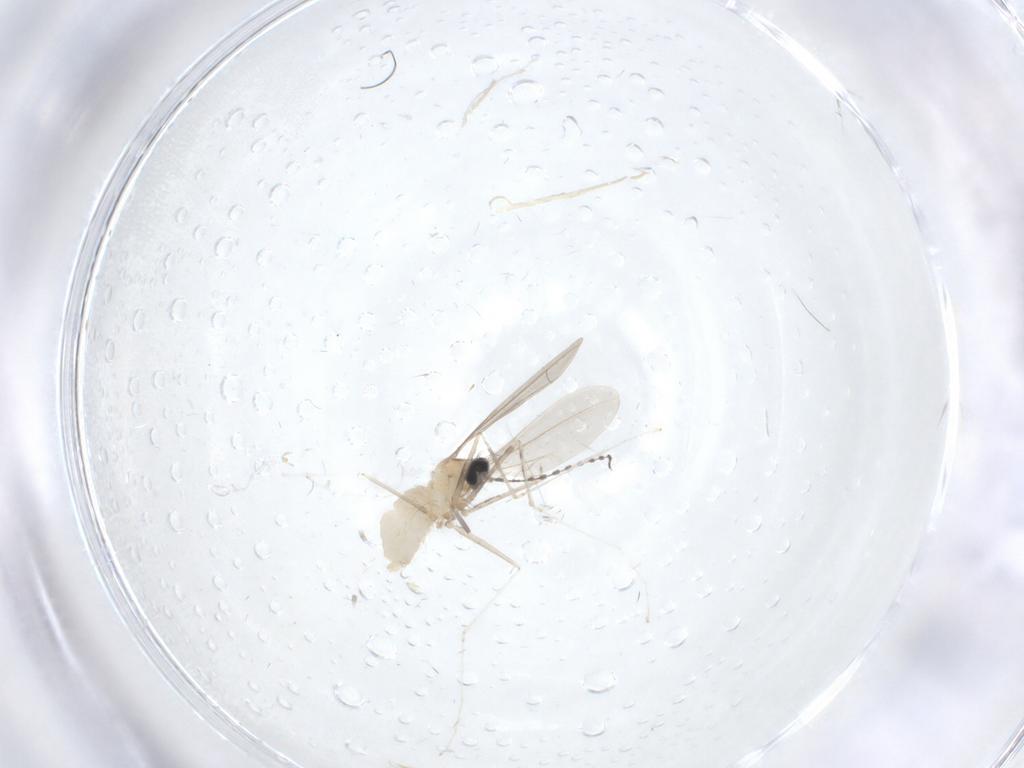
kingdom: Animalia
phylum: Arthropoda
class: Insecta
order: Diptera
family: Cecidomyiidae
